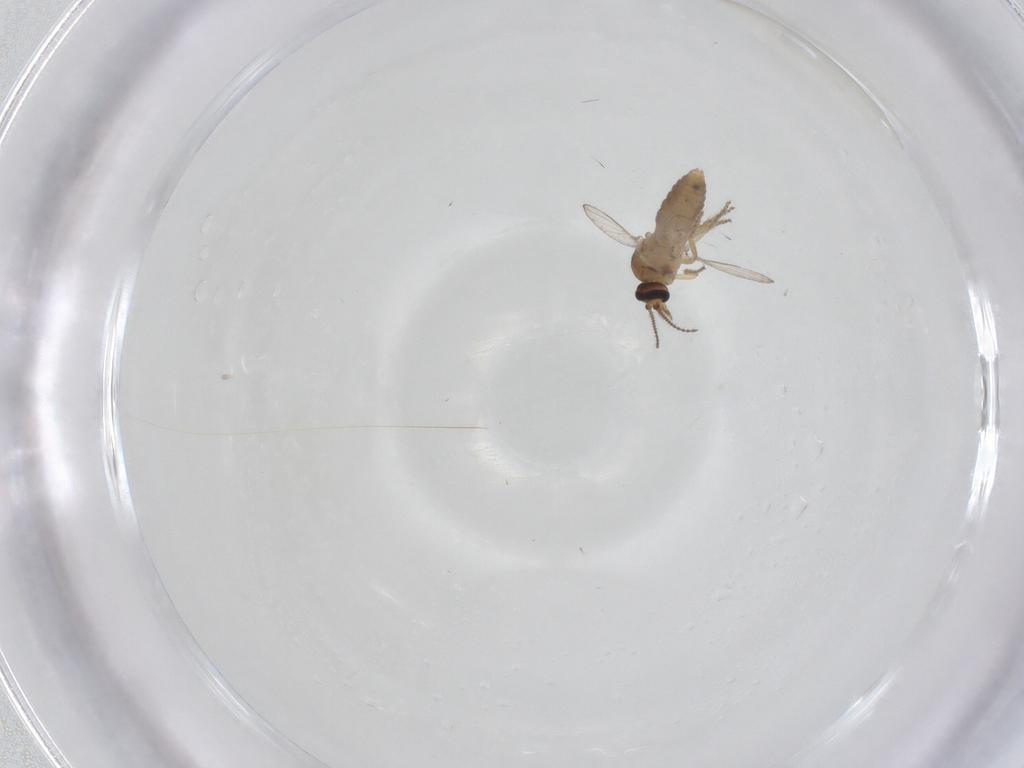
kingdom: Animalia
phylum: Arthropoda
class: Insecta
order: Diptera
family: Ceratopogonidae
